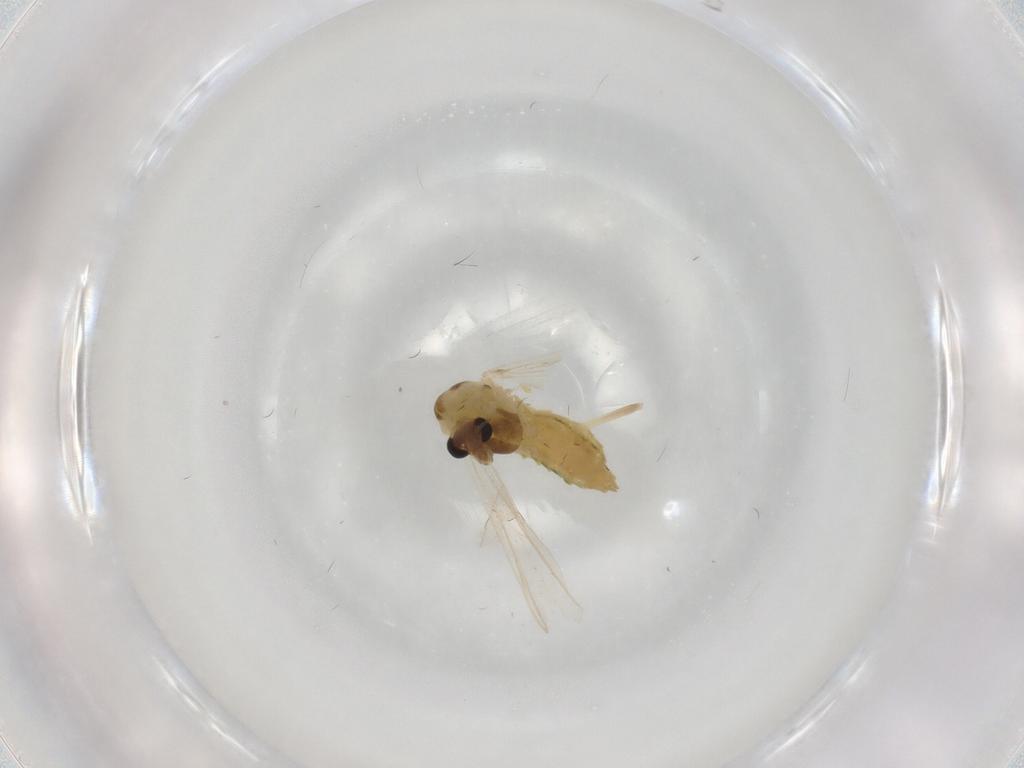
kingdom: Animalia
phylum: Arthropoda
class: Insecta
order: Diptera
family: Chironomidae
